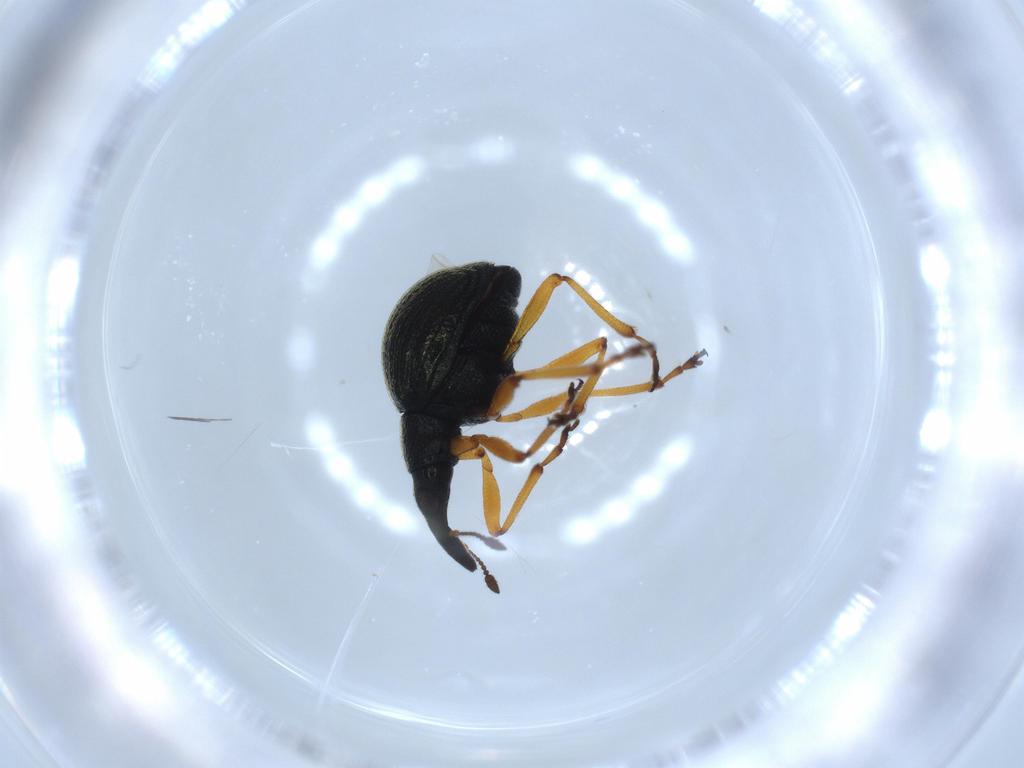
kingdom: Animalia
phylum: Arthropoda
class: Insecta
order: Coleoptera
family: Brentidae
